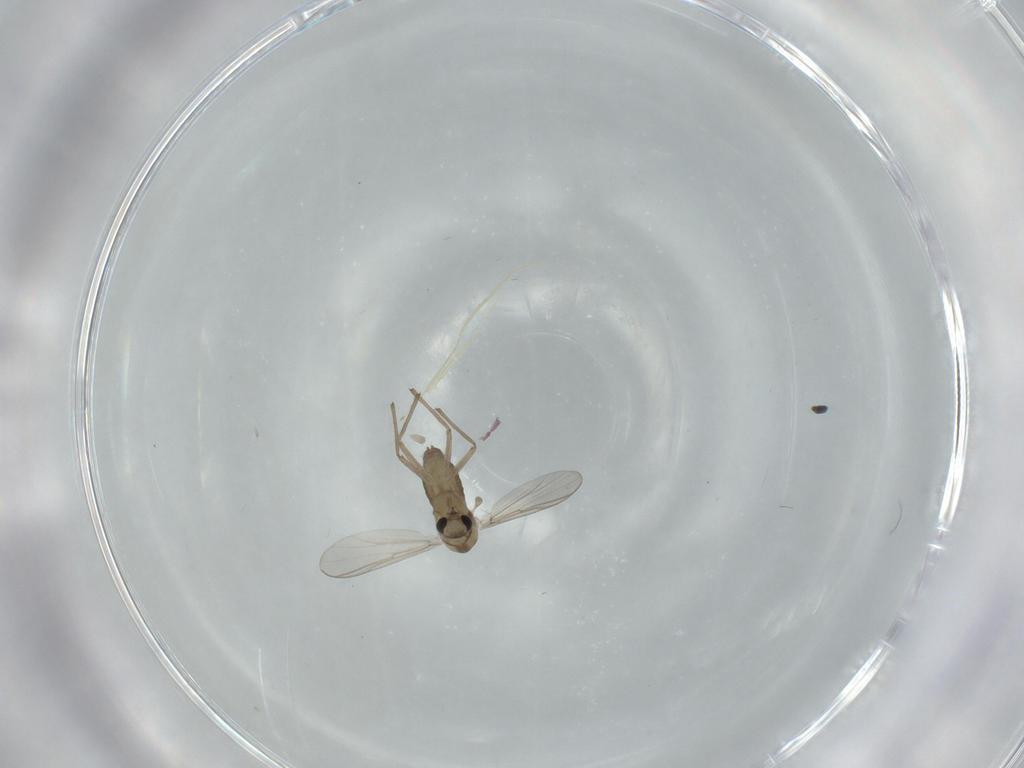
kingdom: Animalia
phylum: Arthropoda
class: Insecta
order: Diptera
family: Chironomidae
